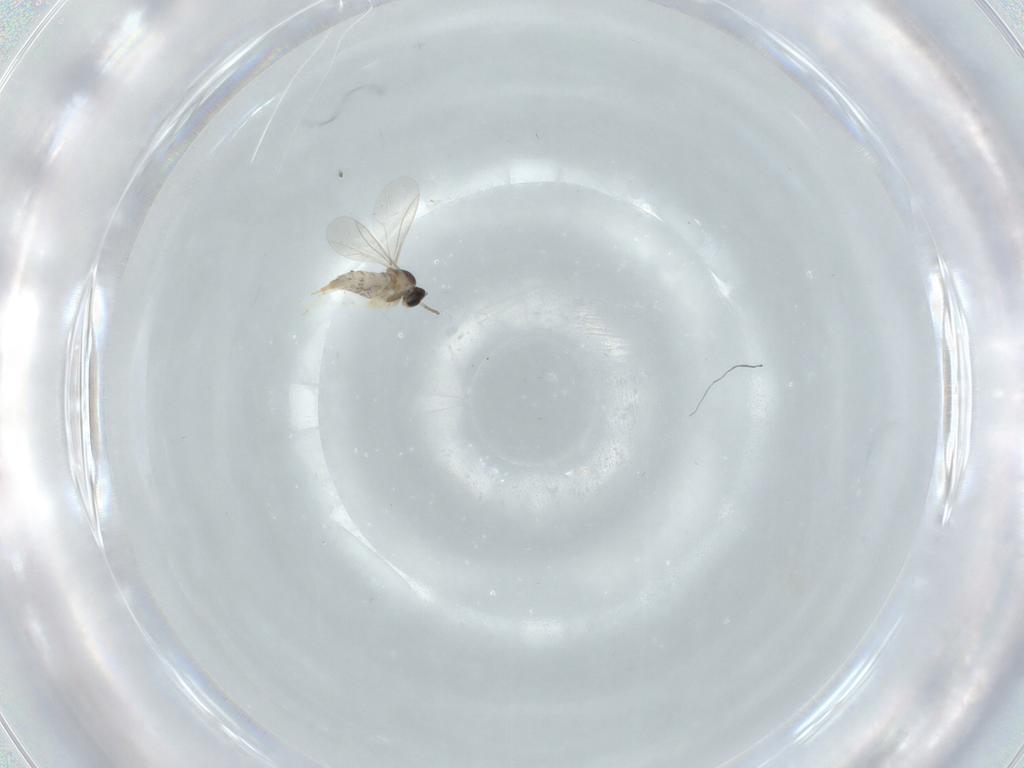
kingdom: Animalia
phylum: Arthropoda
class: Insecta
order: Diptera
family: Cecidomyiidae
